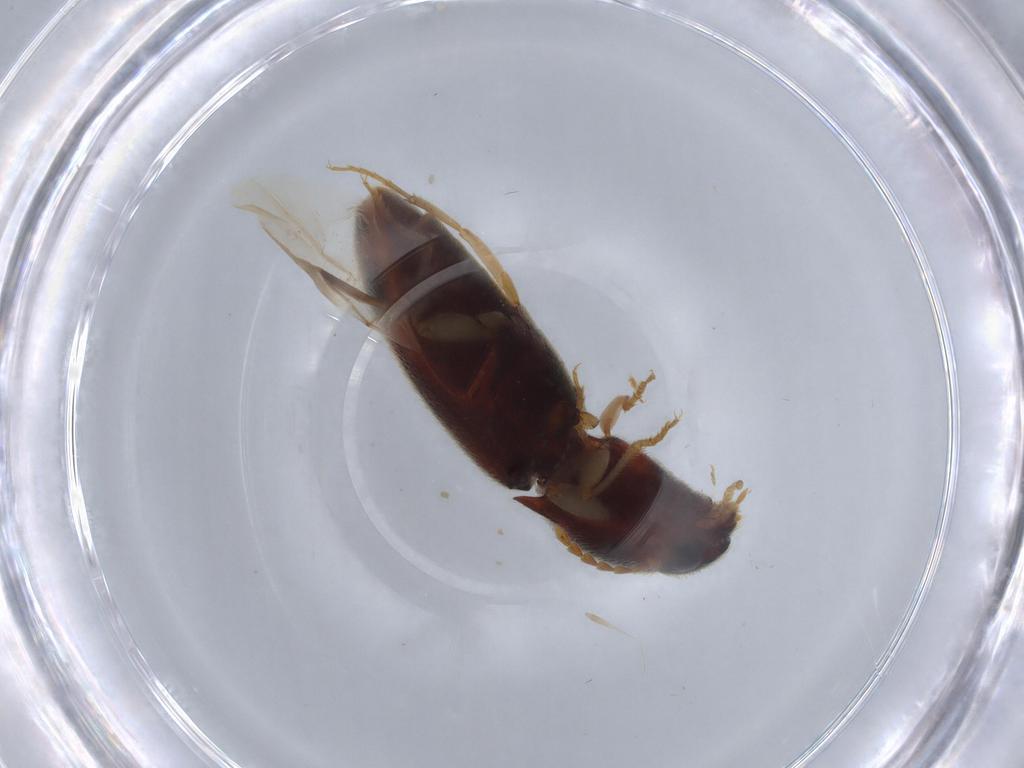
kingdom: Animalia
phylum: Arthropoda
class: Insecta
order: Coleoptera
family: Elateridae
